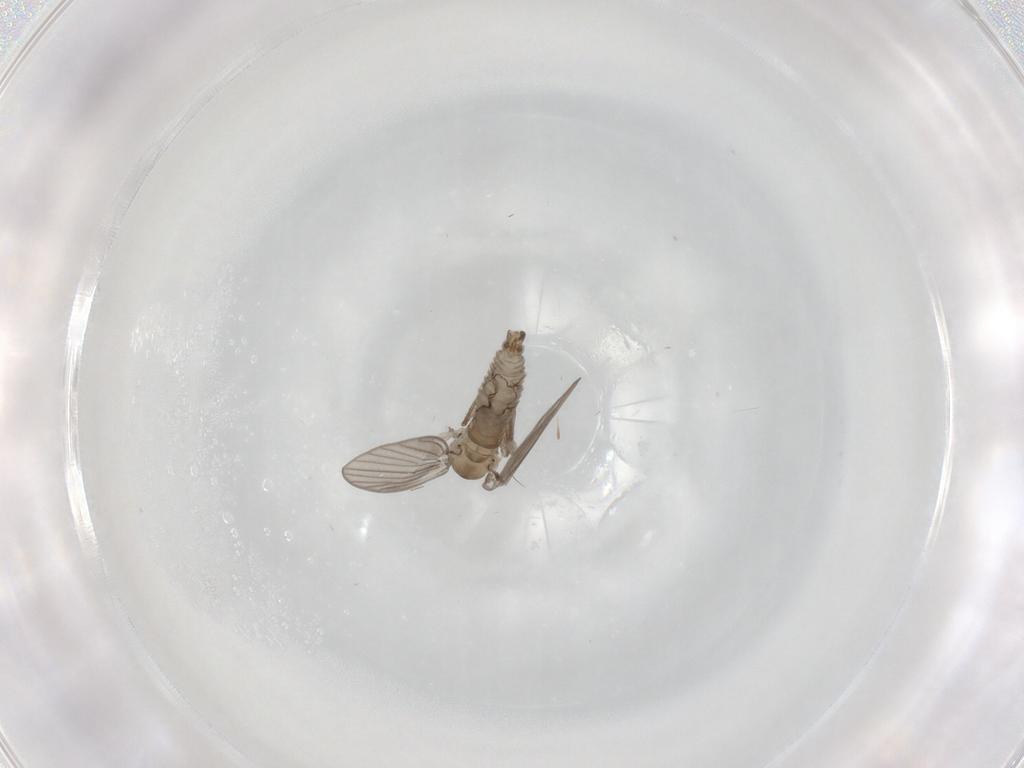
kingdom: Animalia
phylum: Arthropoda
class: Insecta
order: Diptera
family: Psychodidae
